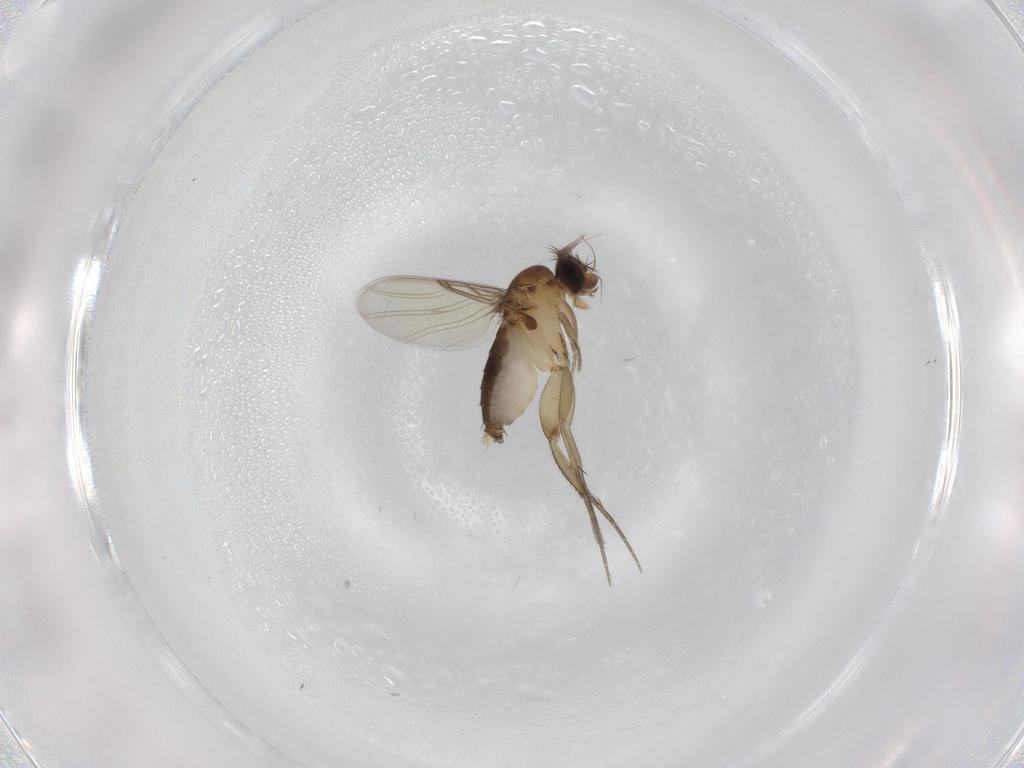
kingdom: Animalia
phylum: Arthropoda
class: Insecta
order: Diptera
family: Phoridae
